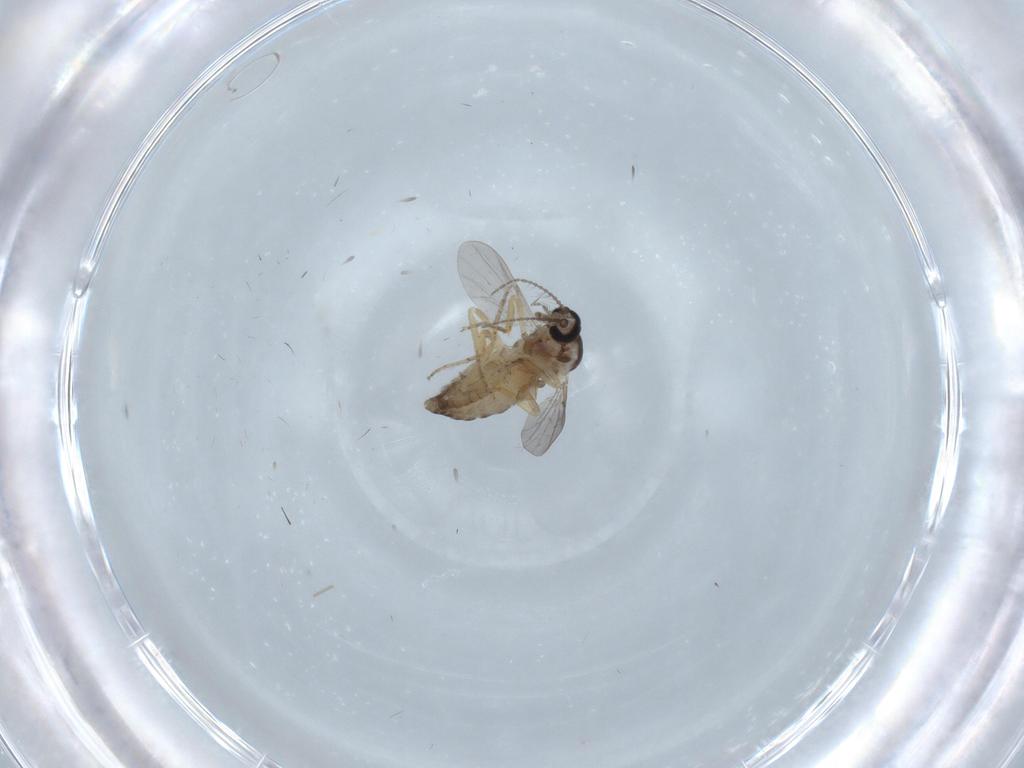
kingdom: Animalia
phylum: Arthropoda
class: Insecta
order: Diptera
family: Ceratopogonidae
